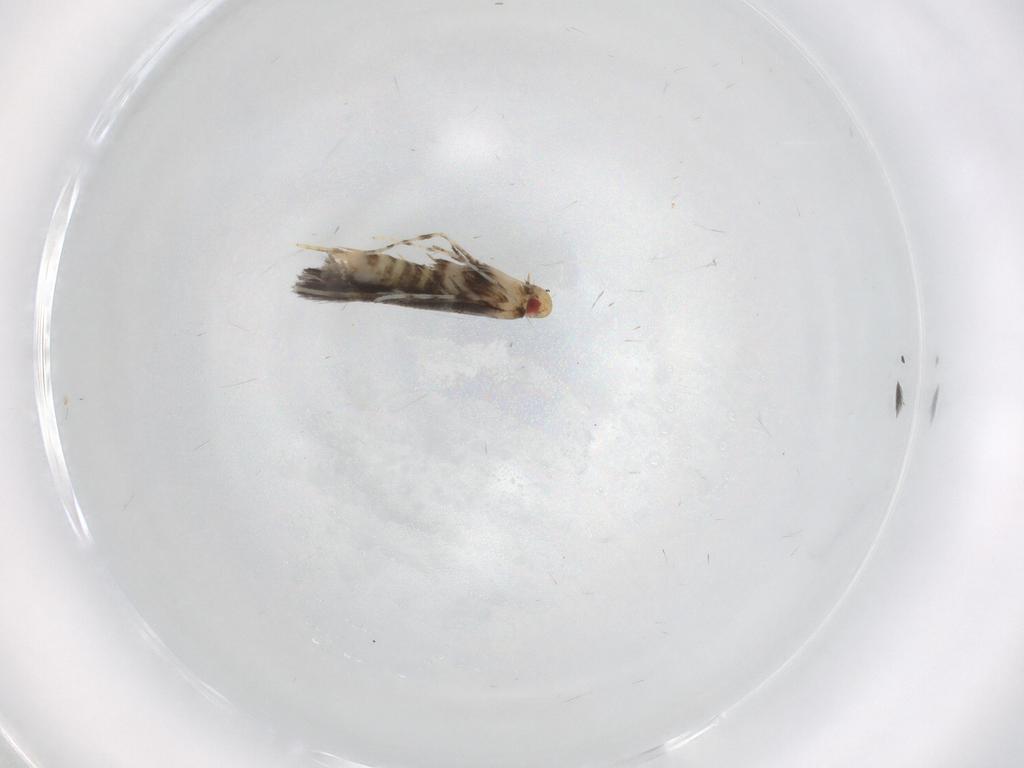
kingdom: Animalia
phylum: Arthropoda
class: Insecta
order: Lepidoptera
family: Gracillariidae
